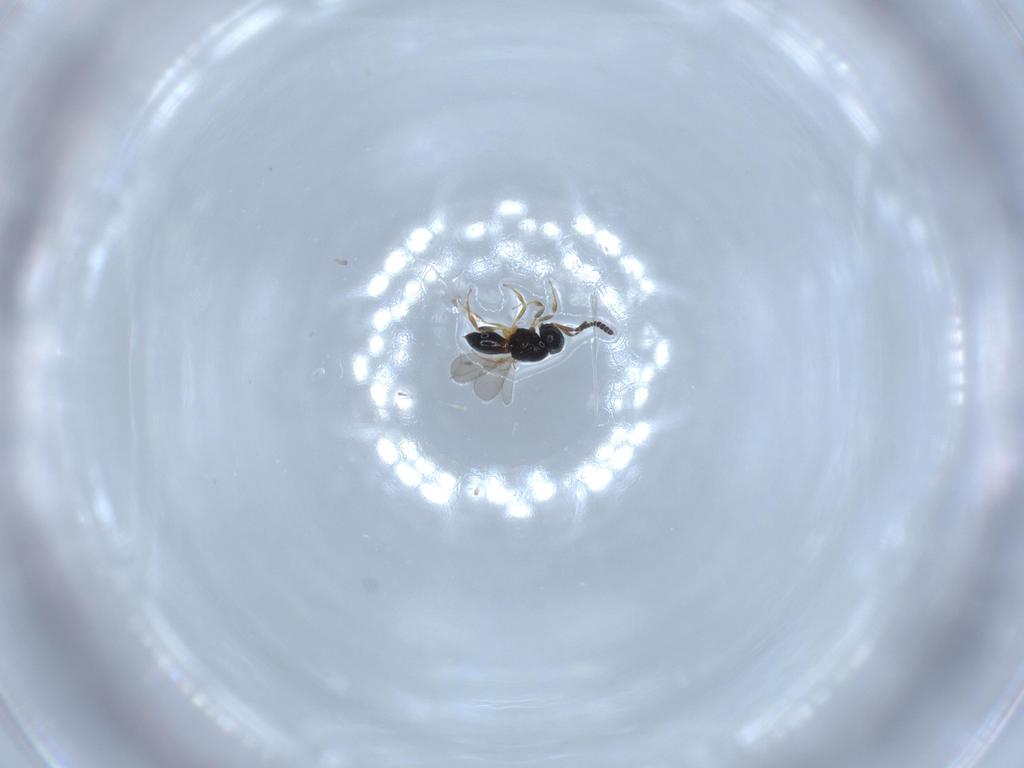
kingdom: Animalia
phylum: Arthropoda
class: Insecta
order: Hymenoptera
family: Scelionidae
